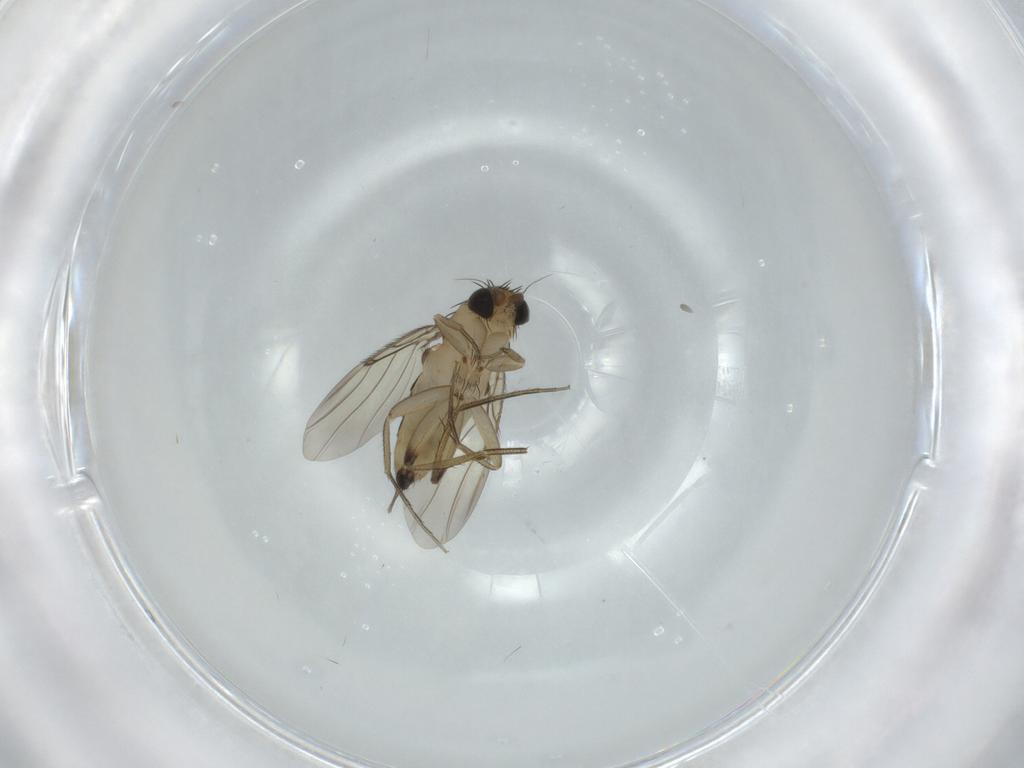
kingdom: Animalia
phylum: Arthropoda
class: Insecta
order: Diptera
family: Phoridae
